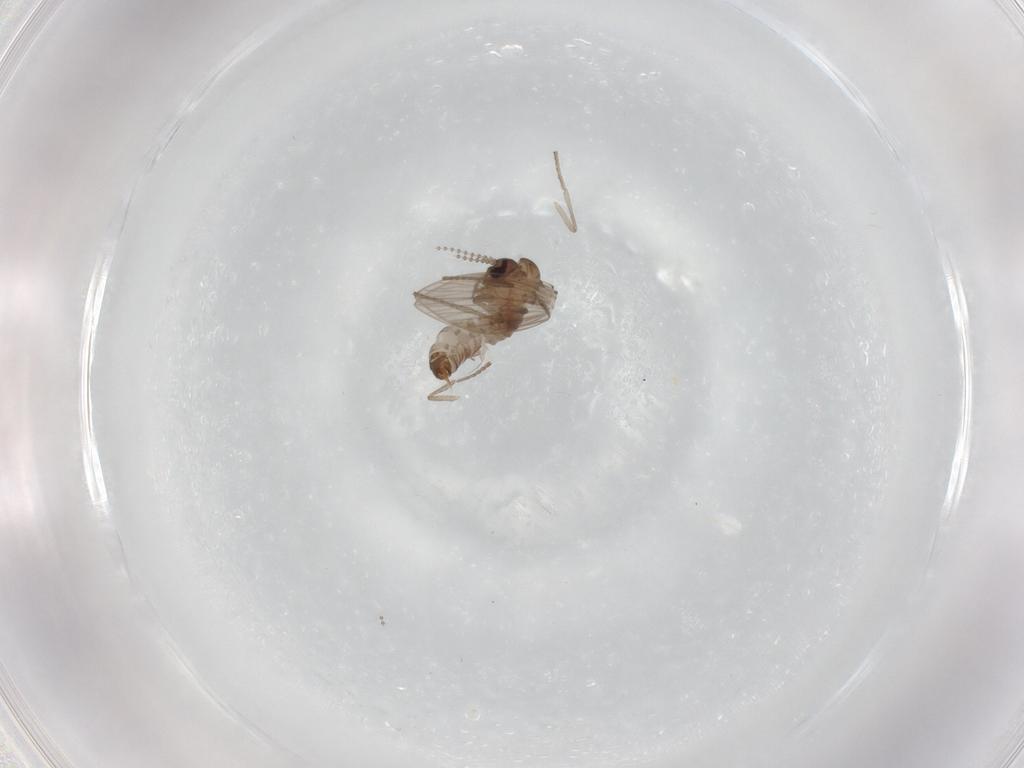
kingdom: Animalia
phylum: Arthropoda
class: Insecta
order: Diptera
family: Psychodidae
